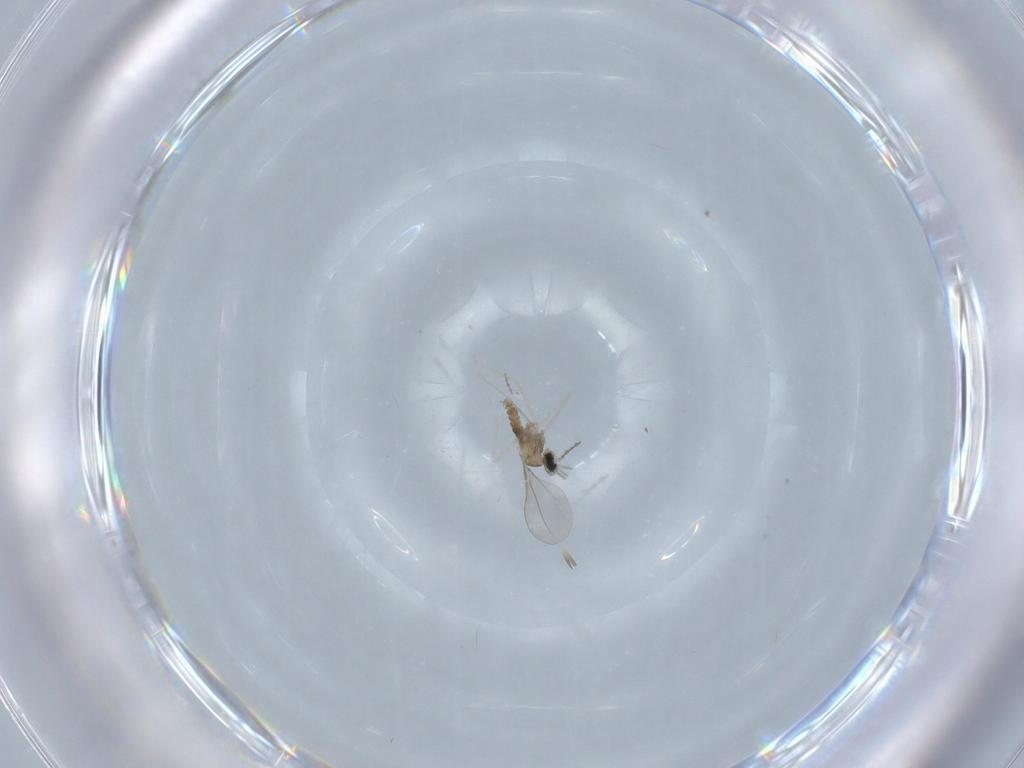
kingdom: Animalia
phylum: Arthropoda
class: Insecta
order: Diptera
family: Cecidomyiidae
